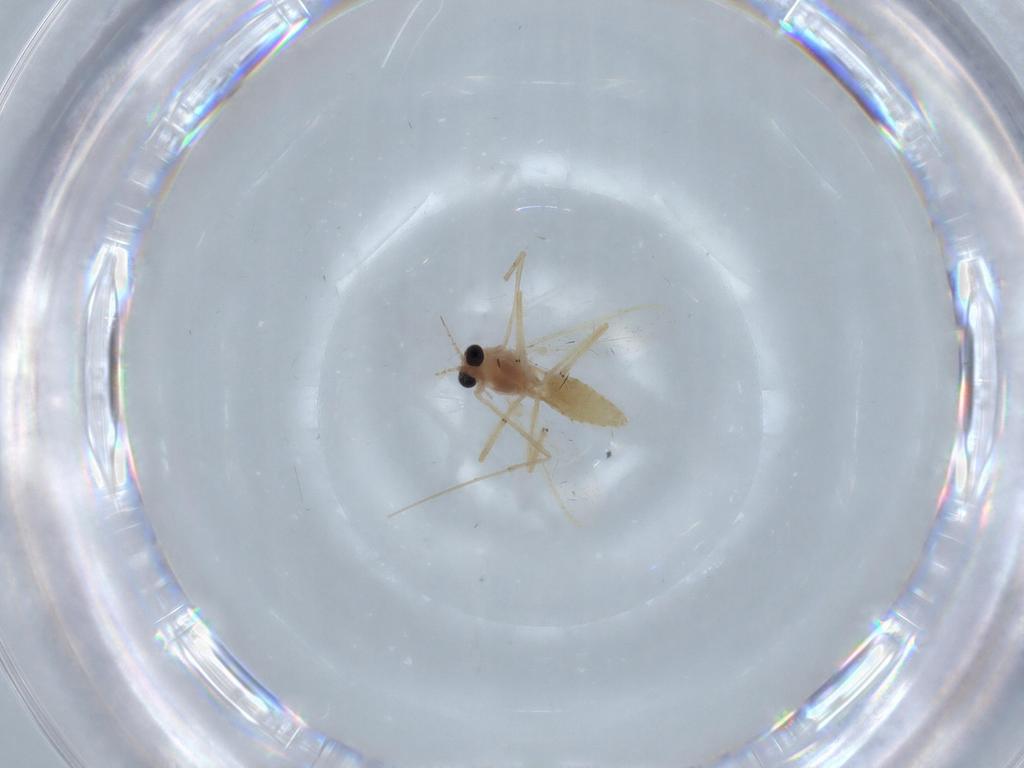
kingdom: Animalia
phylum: Arthropoda
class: Insecta
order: Diptera
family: Chironomidae
